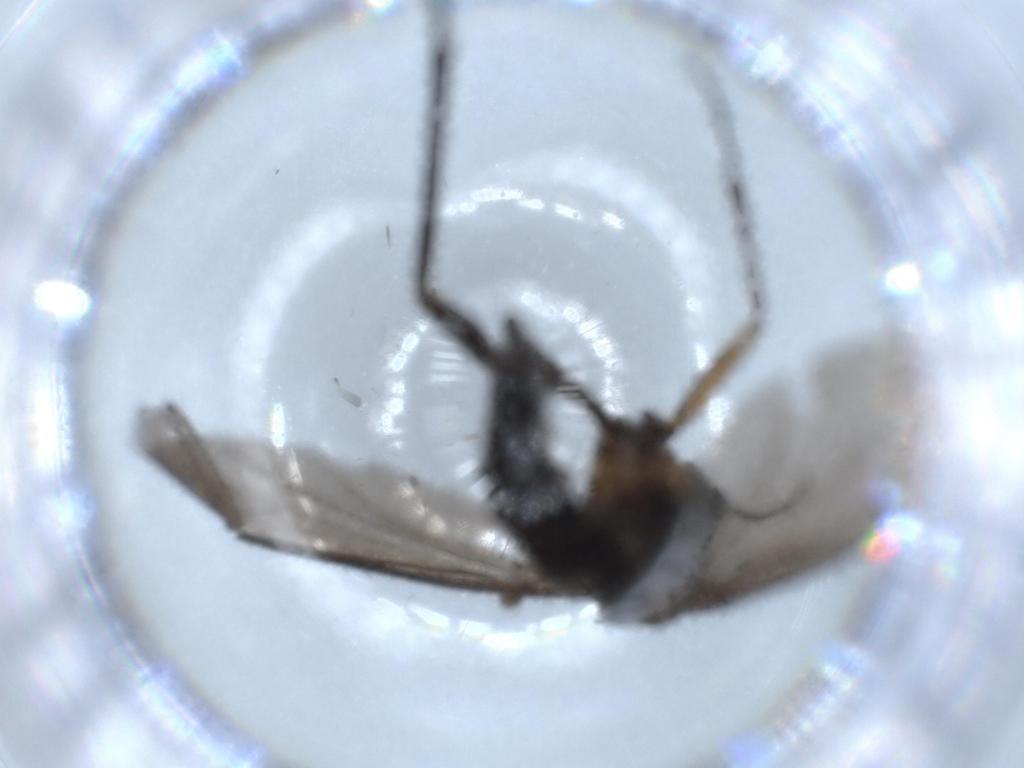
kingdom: Animalia
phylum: Arthropoda
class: Insecta
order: Diptera
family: Sciaridae
